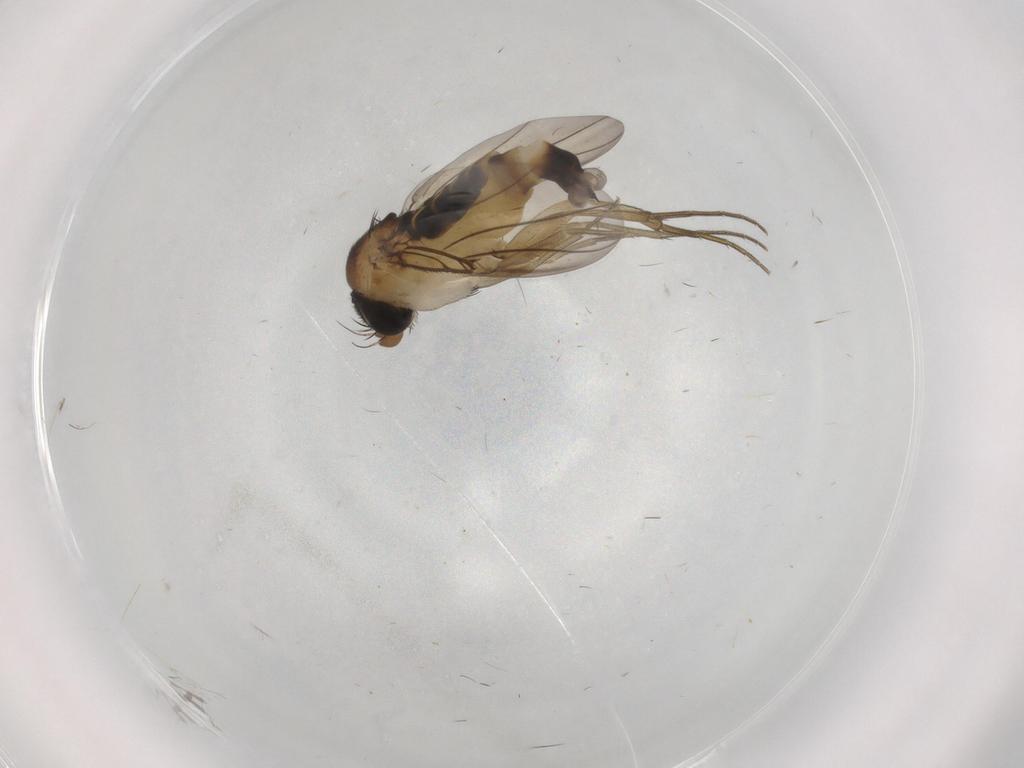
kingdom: Animalia
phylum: Arthropoda
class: Insecta
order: Diptera
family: Phoridae
